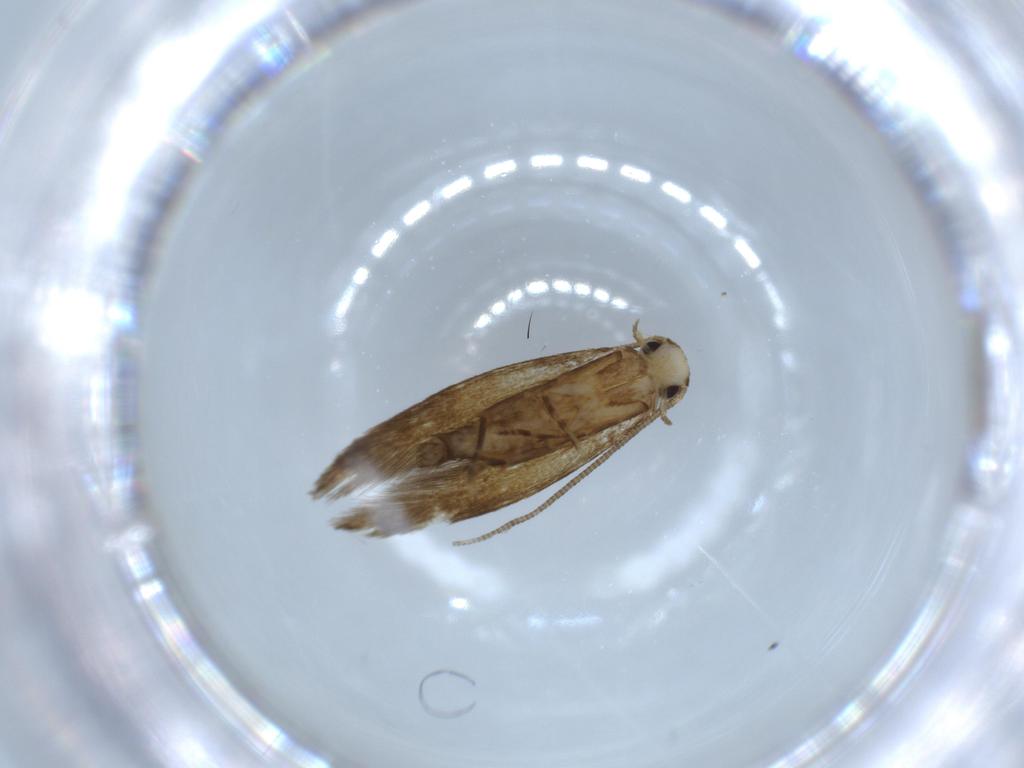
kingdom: Animalia
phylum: Arthropoda
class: Insecta
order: Lepidoptera
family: Tineidae
